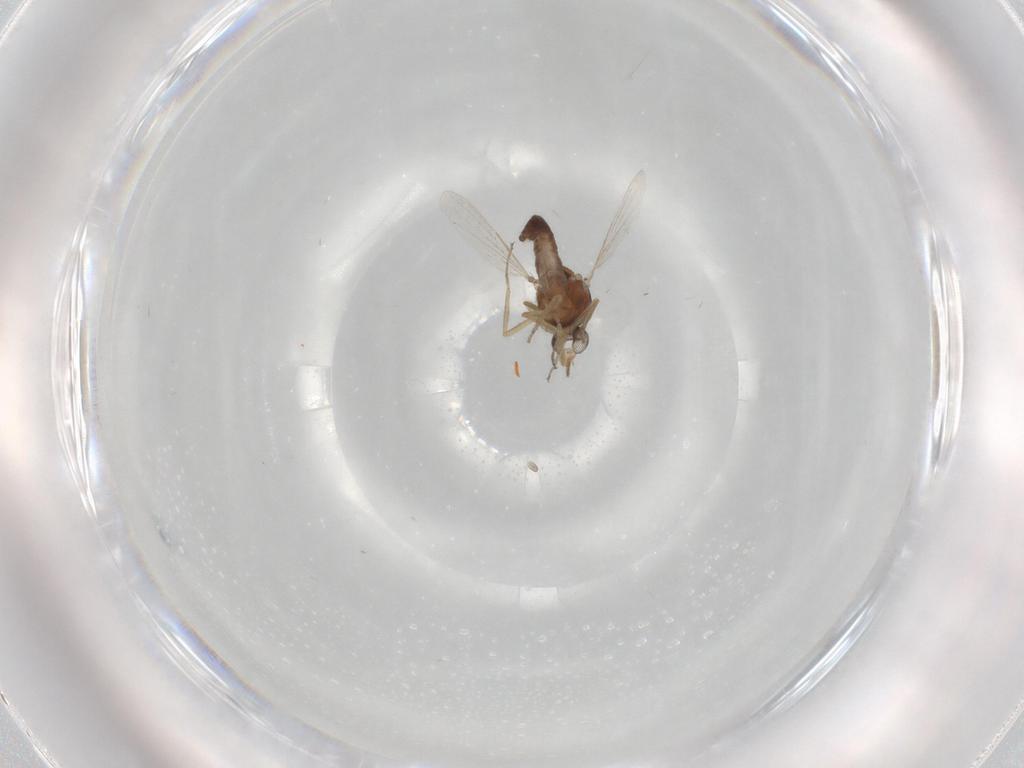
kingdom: Animalia
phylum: Arthropoda
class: Insecta
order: Diptera
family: Ceratopogonidae
